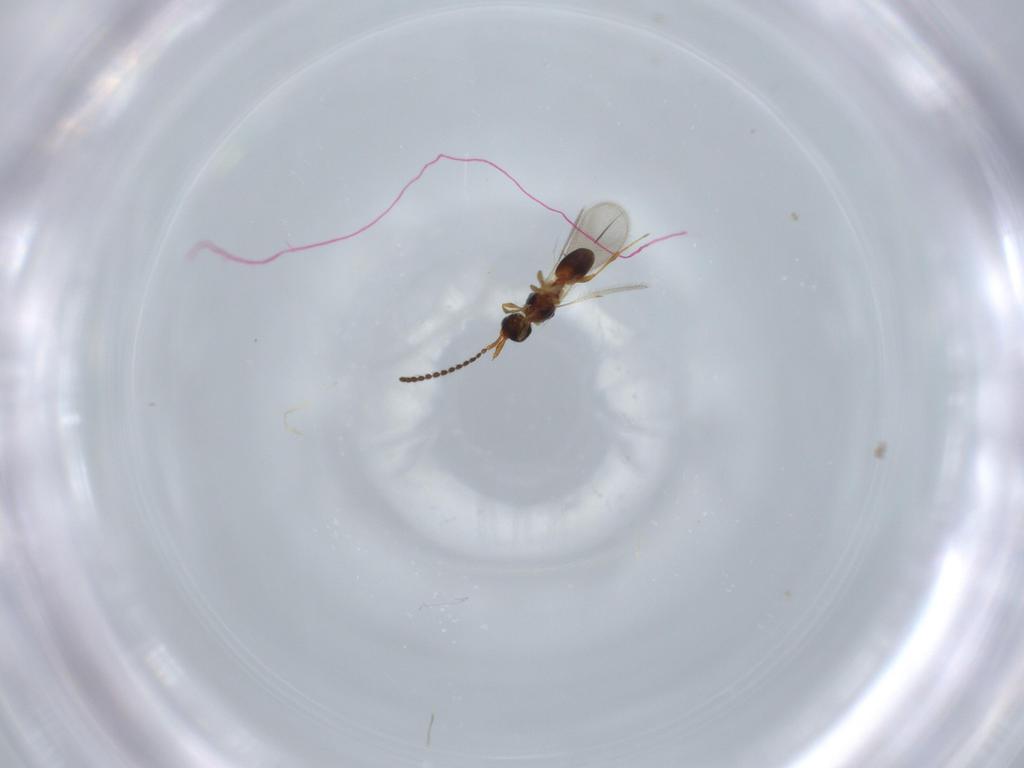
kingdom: Animalia
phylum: Arthropoda
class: Insecta
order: Hymenoptera
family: Diapriidae
